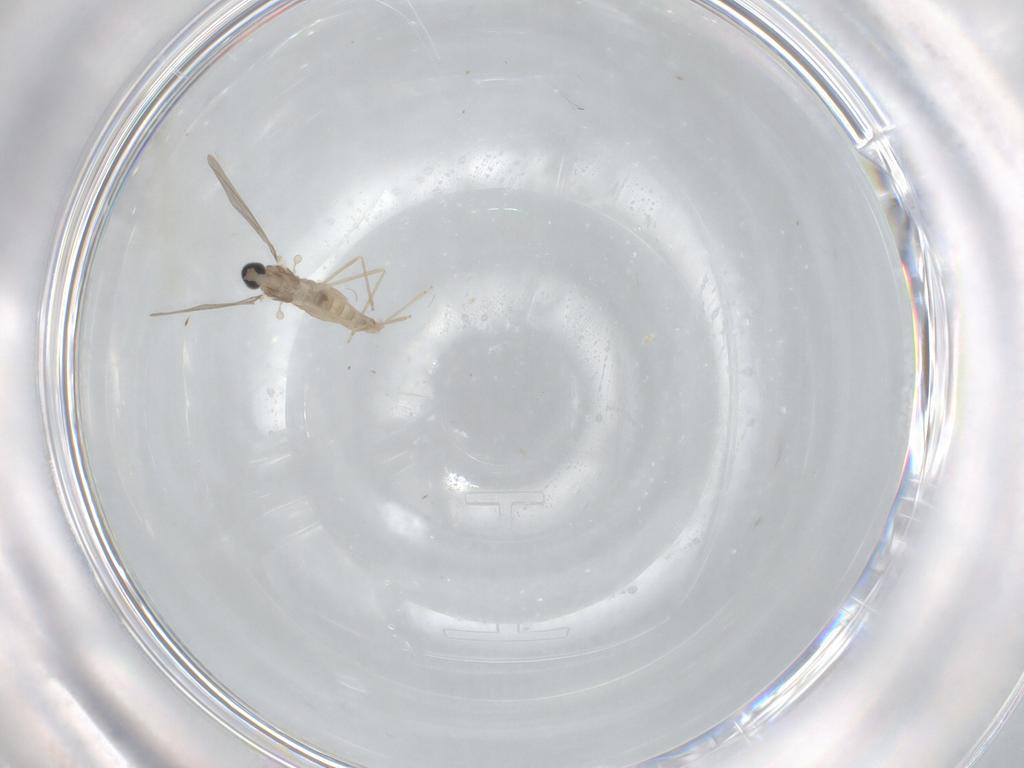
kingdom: Animalia
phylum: Arthropoda
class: Insecta
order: Diptera
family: Cecidomyiidae
